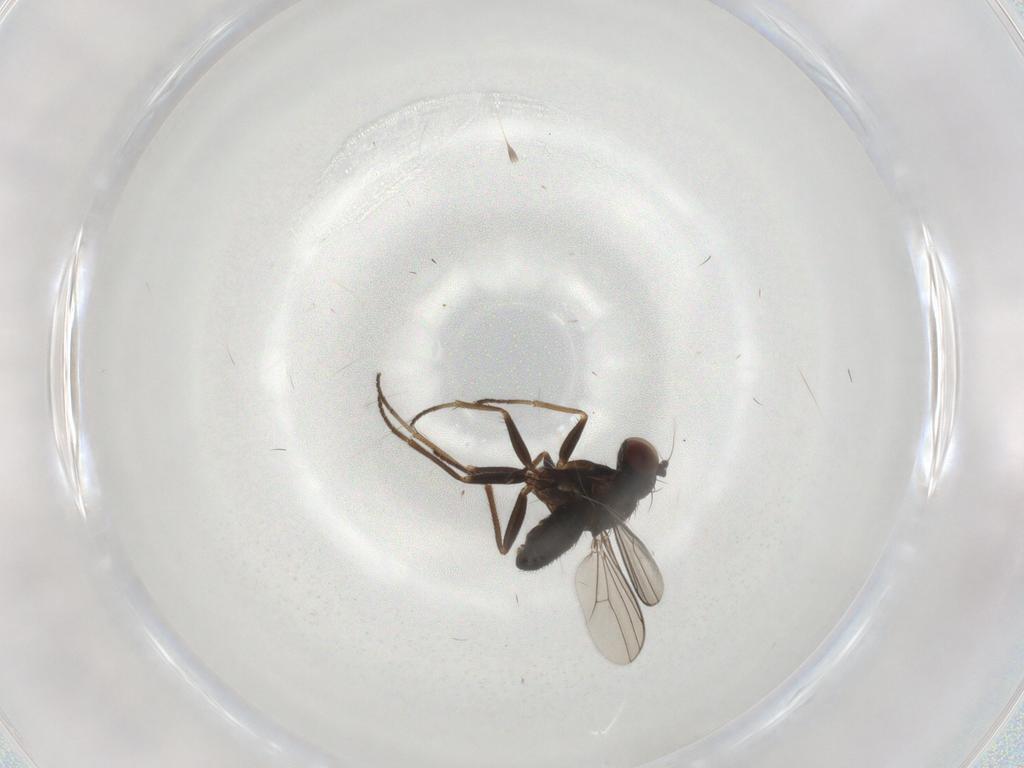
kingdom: Animalia
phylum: Arthropoda
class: Insecta
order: Diptera
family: Dolichopodidae
